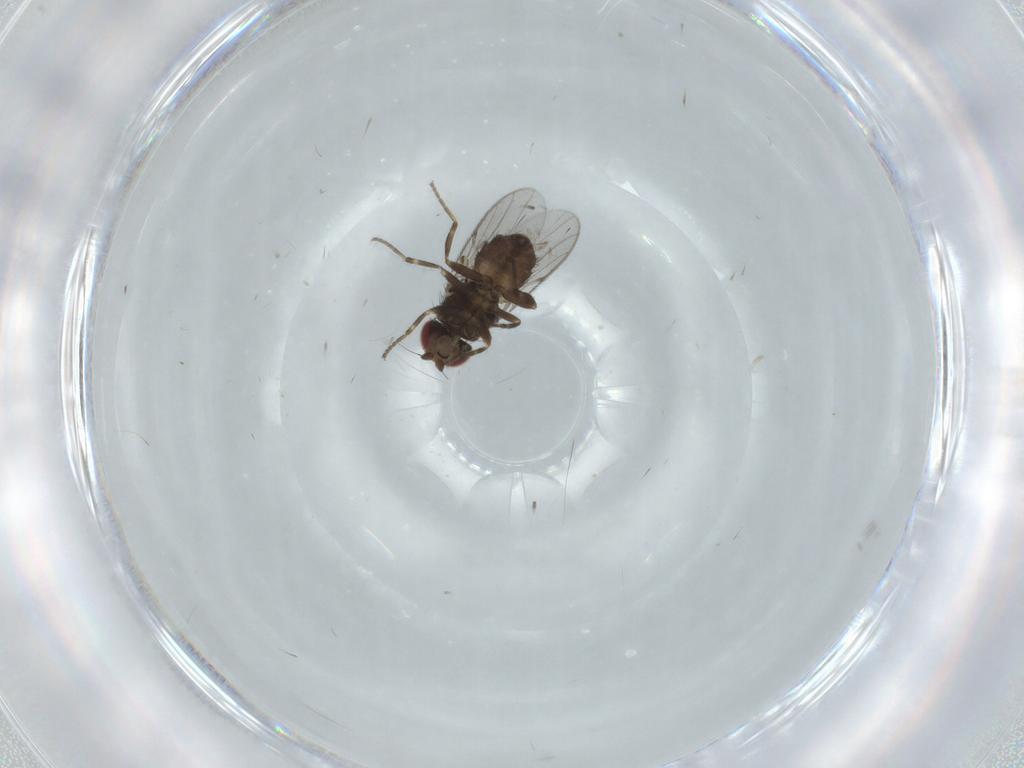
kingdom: Animalia
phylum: Arthropoda
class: Insecta
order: Diptera
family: Chloropidae
